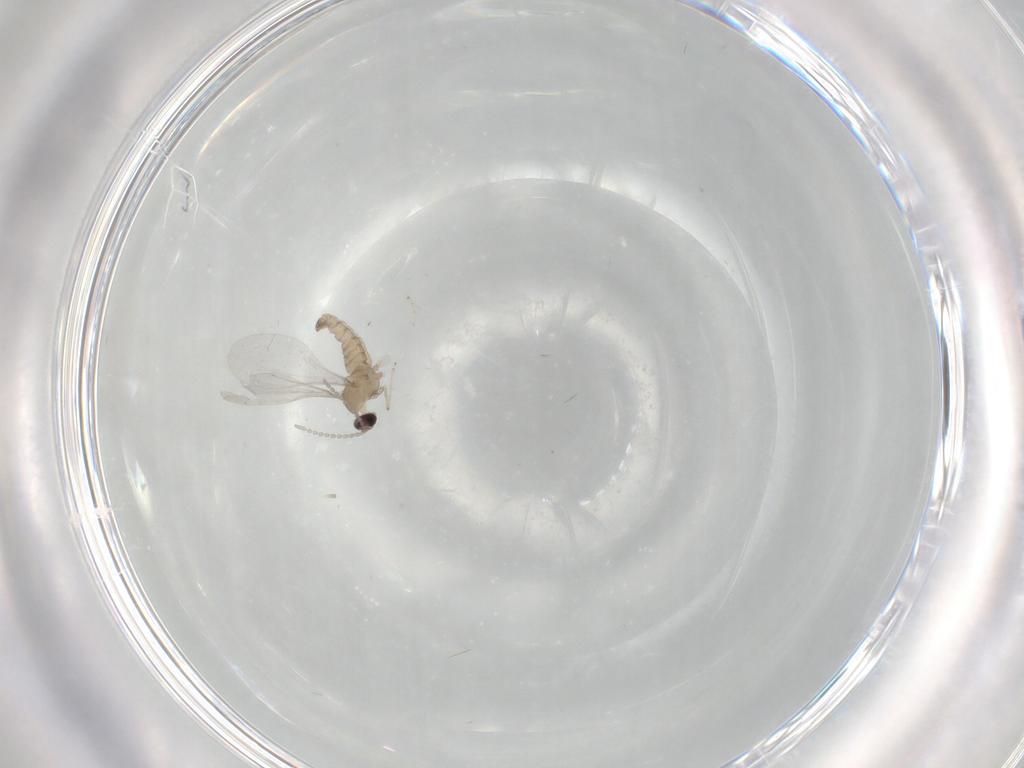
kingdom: Animalia
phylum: Arthropoda
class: Insecta
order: Diptera
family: Cecidomyiidae
